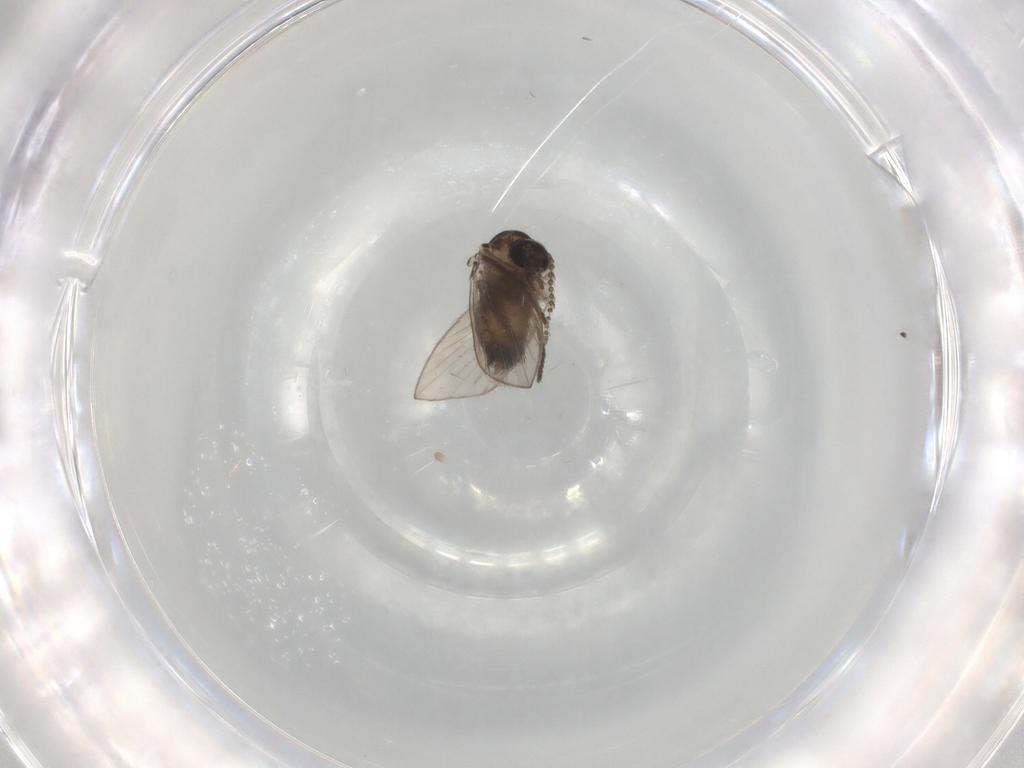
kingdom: Animalia
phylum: Arthropoda
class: Insecta
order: Diptera
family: Psychodidae
